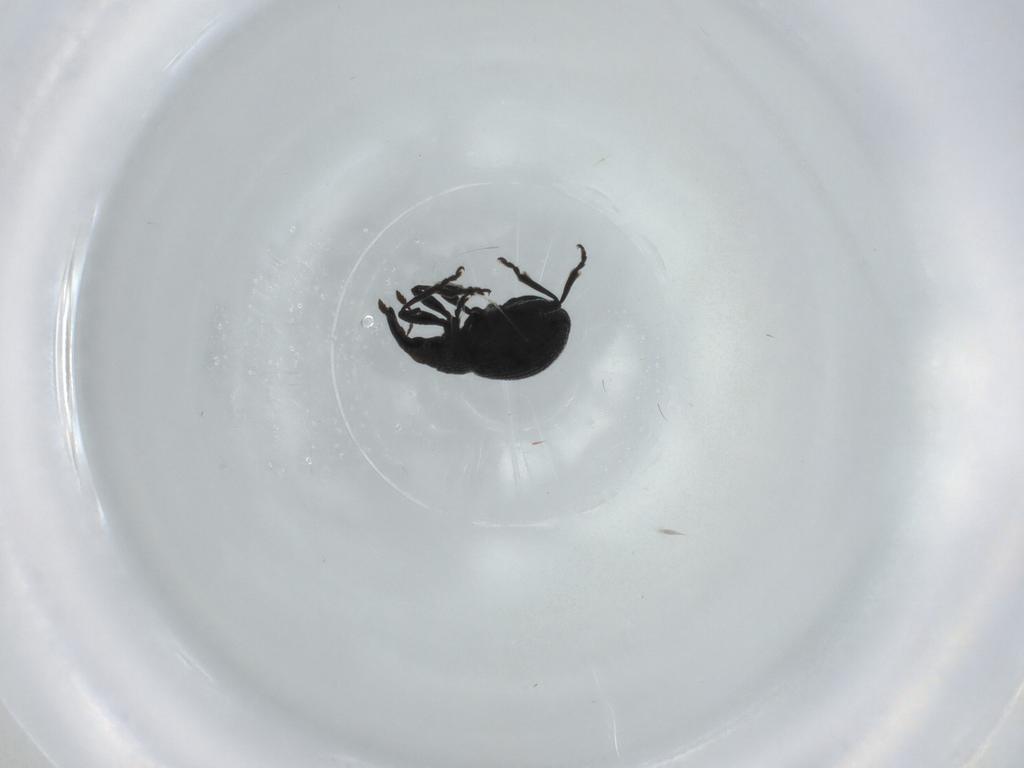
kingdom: Animalia
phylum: Arthropoda
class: Insecta
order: Coleoptera
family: Brentidae
